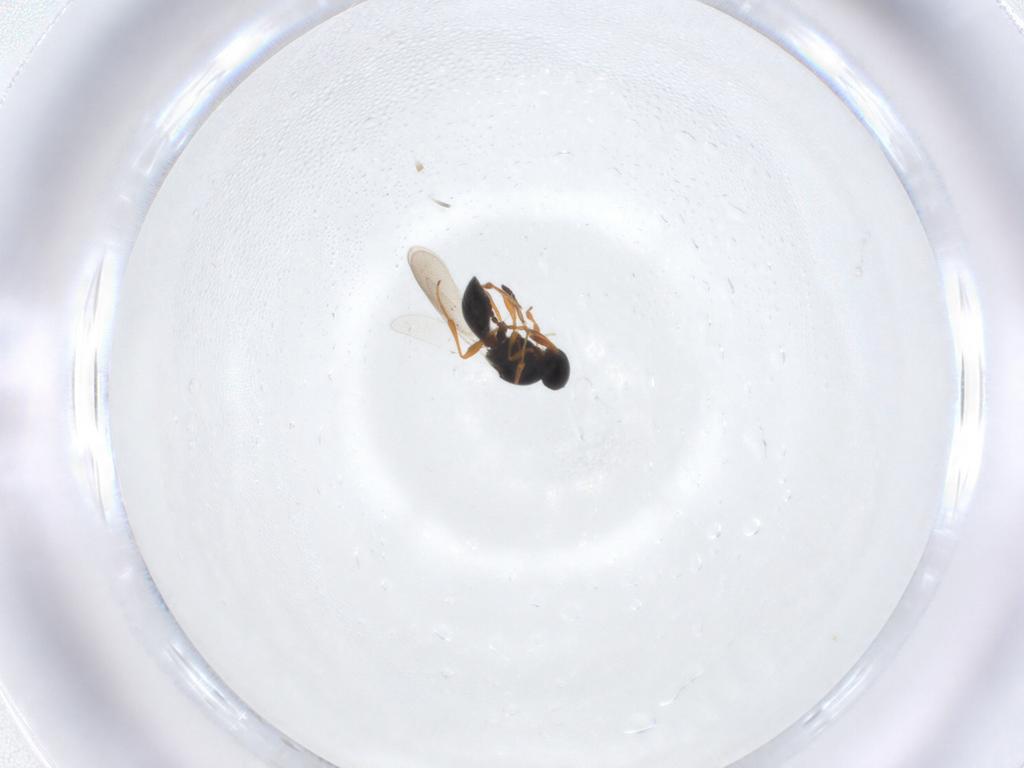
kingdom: Animalia
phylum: Arthropoda
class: Insecta
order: Hymenoptera
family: Platygastridae
